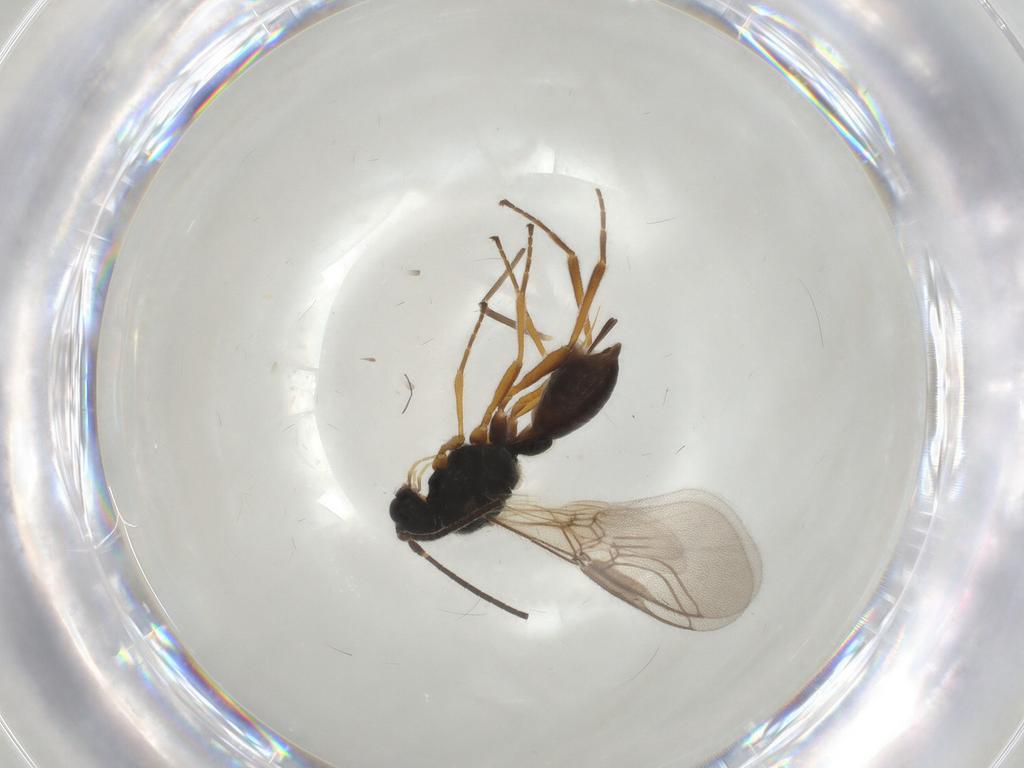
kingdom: Animalia
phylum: Arthropoda
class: Insecta
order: Hymenoptera
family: Braconidae
